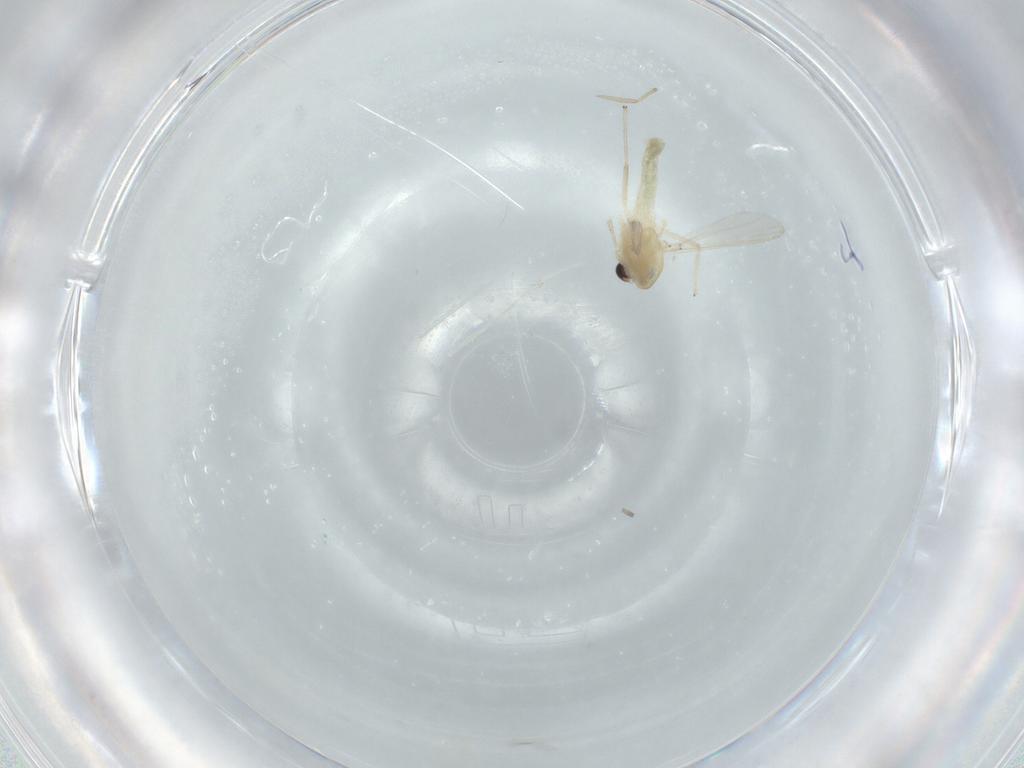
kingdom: Animalia
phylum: Arthropoda
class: Insecta
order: Diptera
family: Chironomidae
